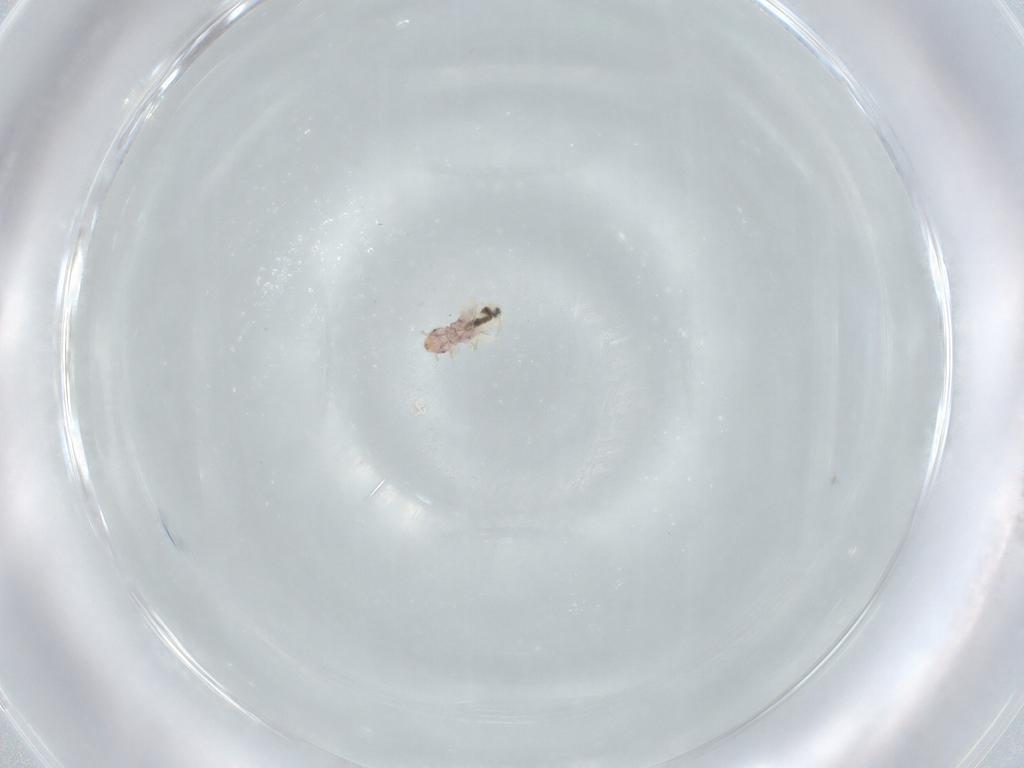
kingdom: Animalia
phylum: Arthropoda
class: Insecta
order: Psocodea
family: Liposcelididae
